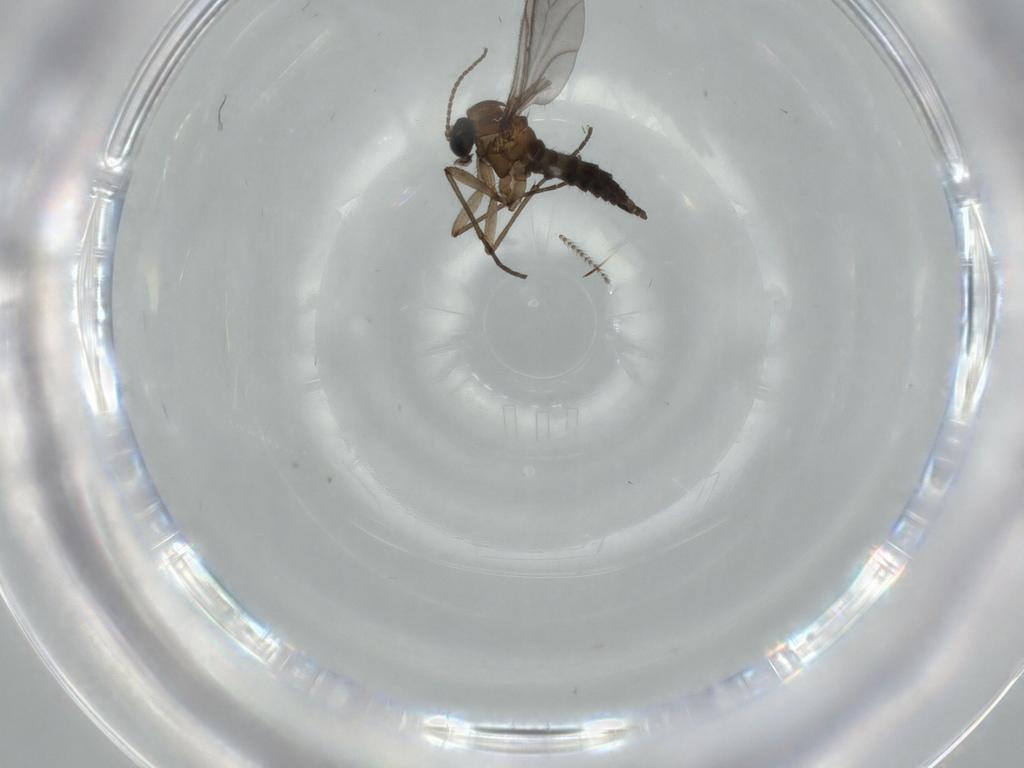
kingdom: Animalia
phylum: Arthropoda
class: Insecta
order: Diptera
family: Sciaridae
